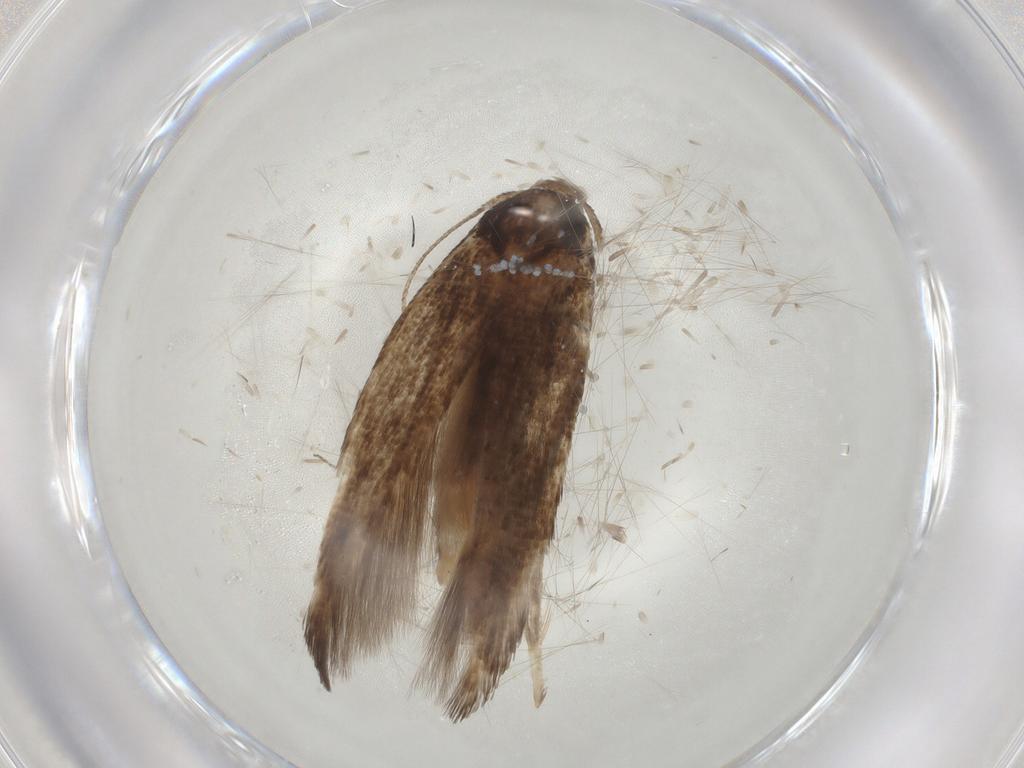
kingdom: Animalia
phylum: Arthropoda
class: Insecta
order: Lepidoptera
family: Cosmopterigidae
